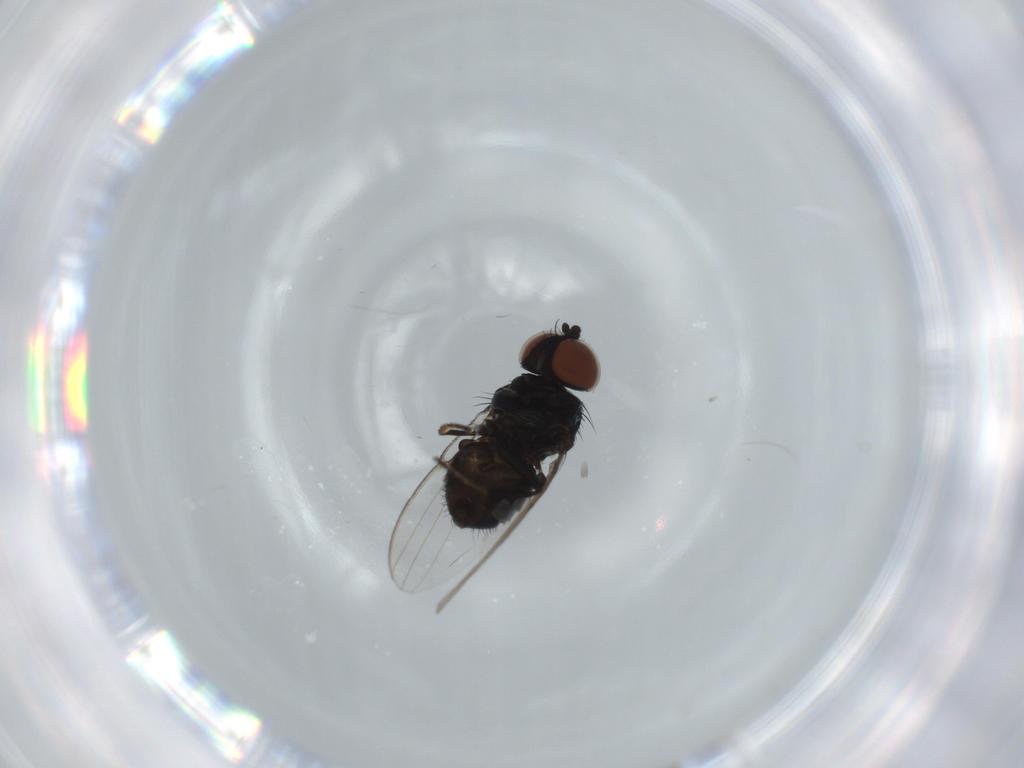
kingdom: Animalia
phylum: Arthropoda
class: Insecta
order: Diptera
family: Milichiidae
